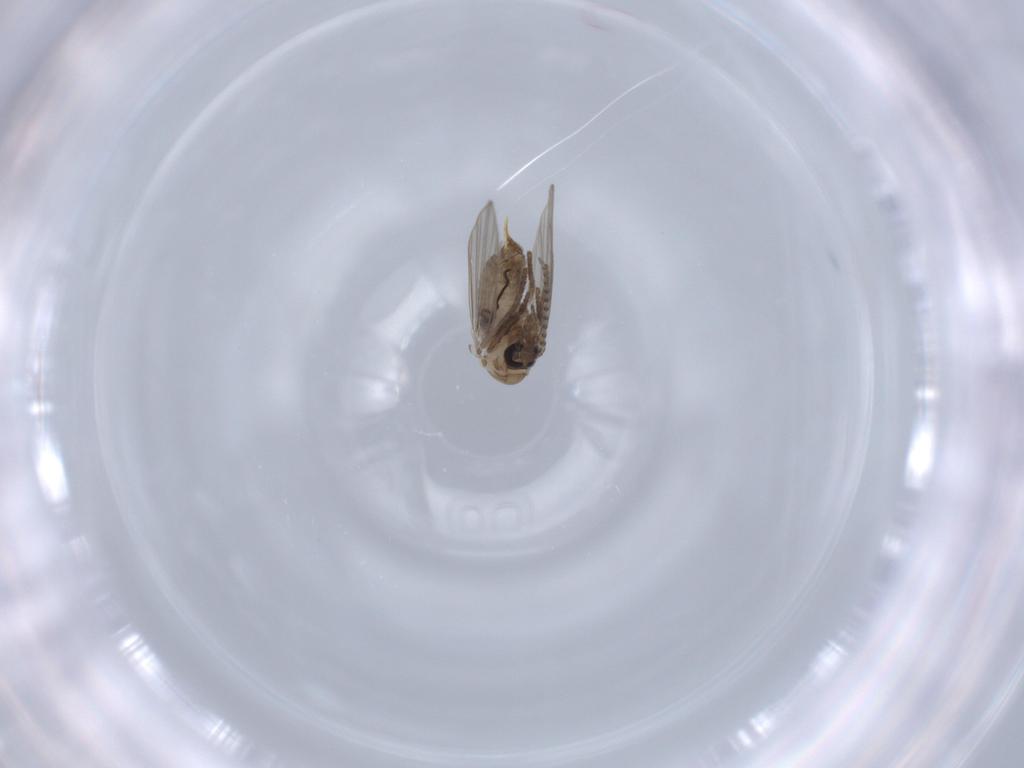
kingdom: Animalia
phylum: Arthropoda
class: Insecta
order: Diptera
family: Psychodidae
